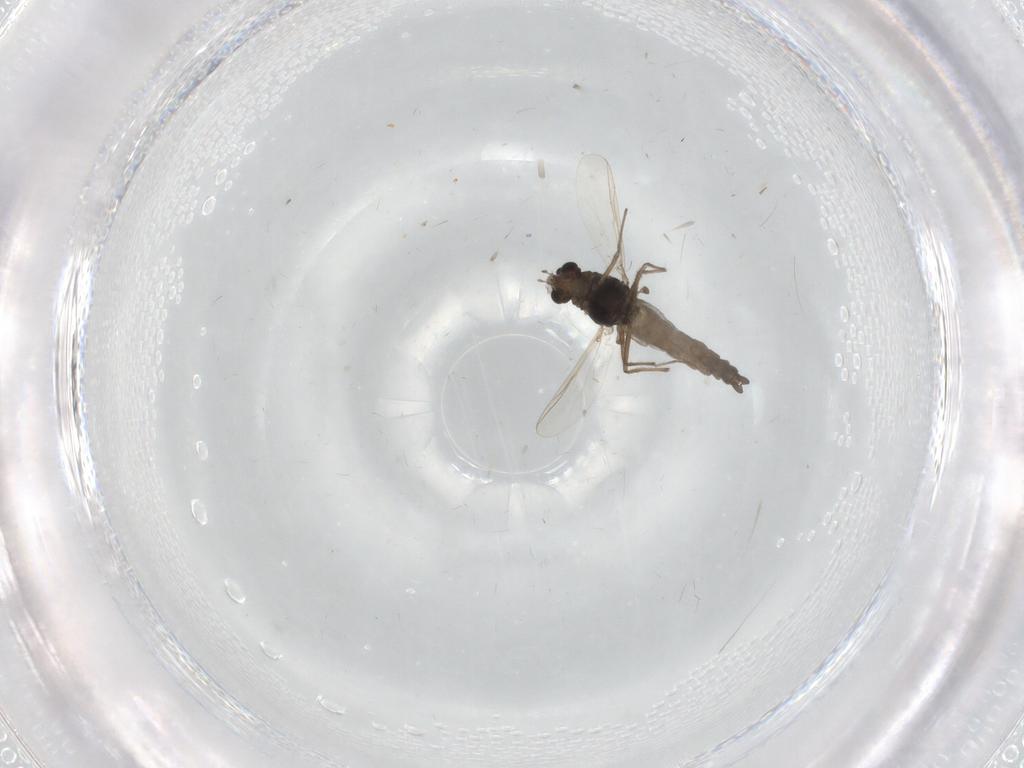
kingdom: Animalia
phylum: Arthropoda
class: Insecta
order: Diptera
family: Chironomidae
